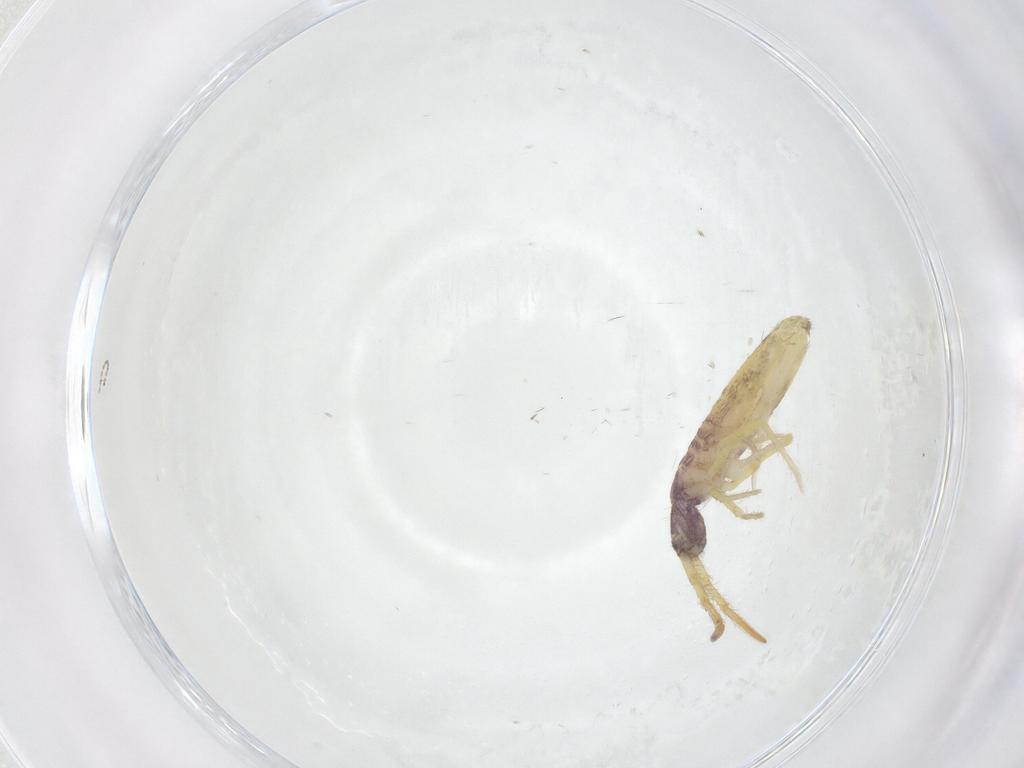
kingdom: Animalia
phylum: Arthropoda
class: Collembola
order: Entomobryomorpha
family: Entomobryidae
